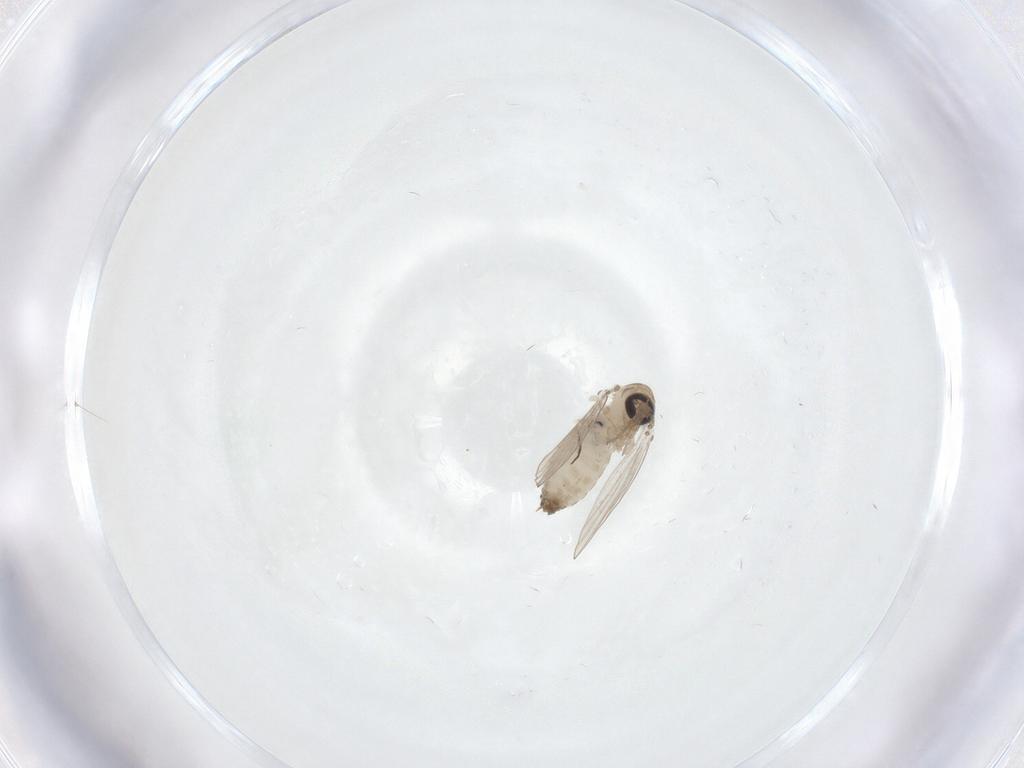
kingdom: Animalia
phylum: Arthropoda
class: Insecta
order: Diptera
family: Psychodidae
